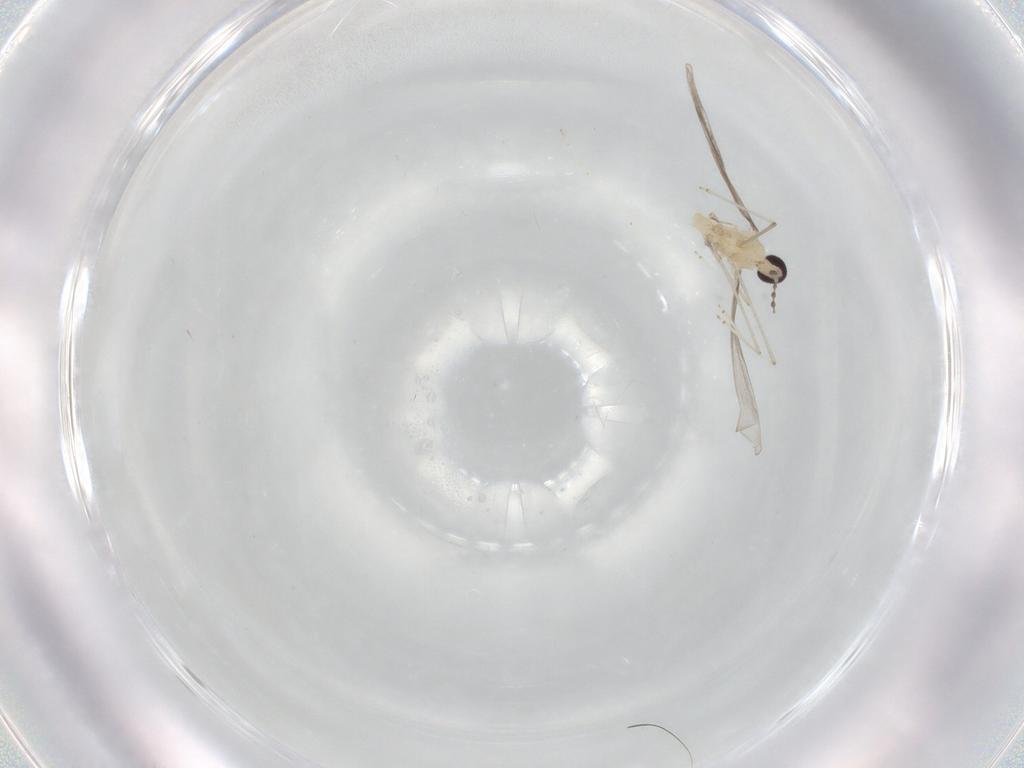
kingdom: Animalia
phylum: Arthropoda
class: Insecta
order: Diptera
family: Cecidomyiidae
